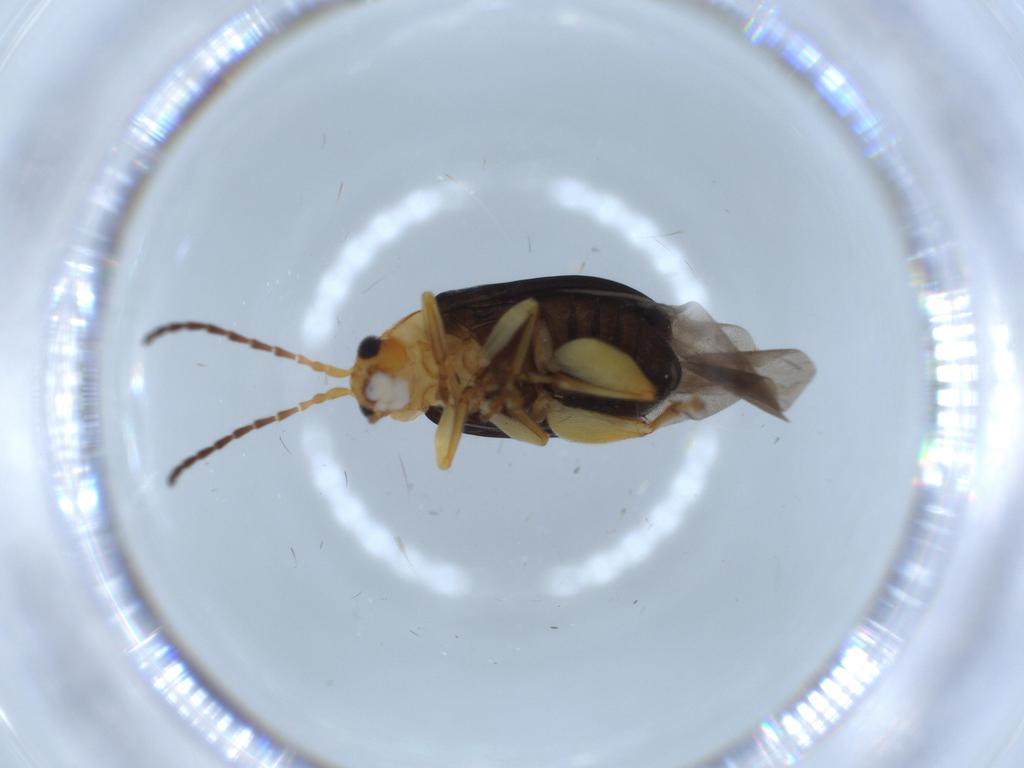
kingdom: Animalia
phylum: Arthropoda
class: Insecta
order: Coleoptera
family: Chrysomelidae
